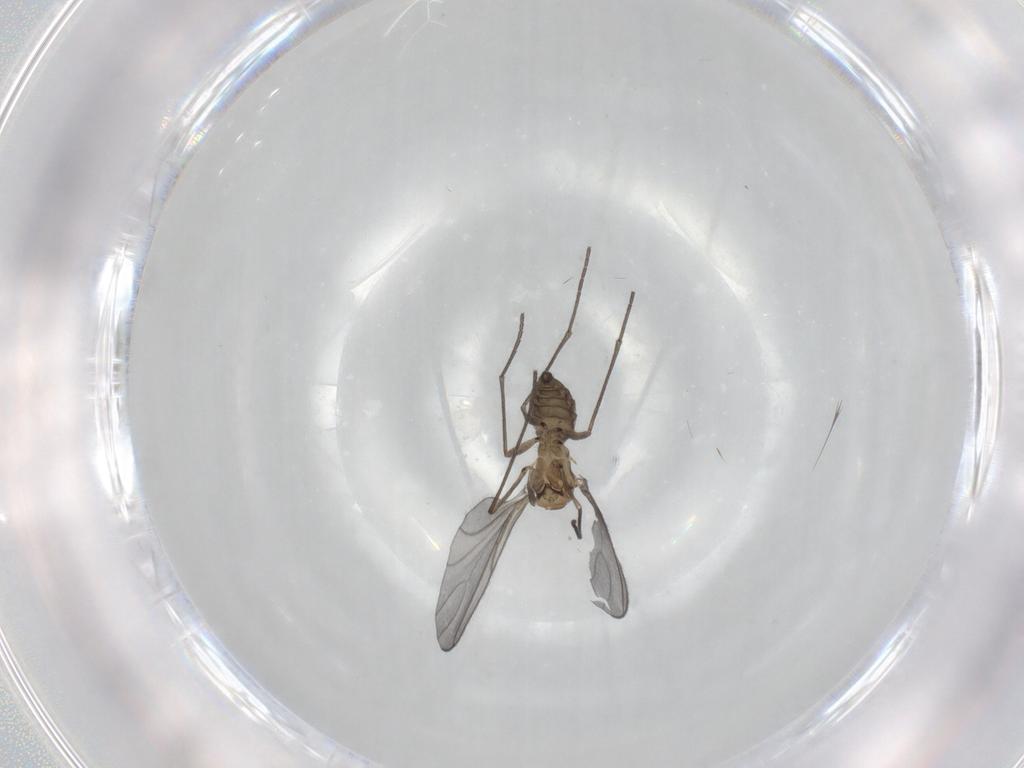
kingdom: Animalia
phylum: Arthropoda
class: Insecta
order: Diptera
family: Sciaridae
